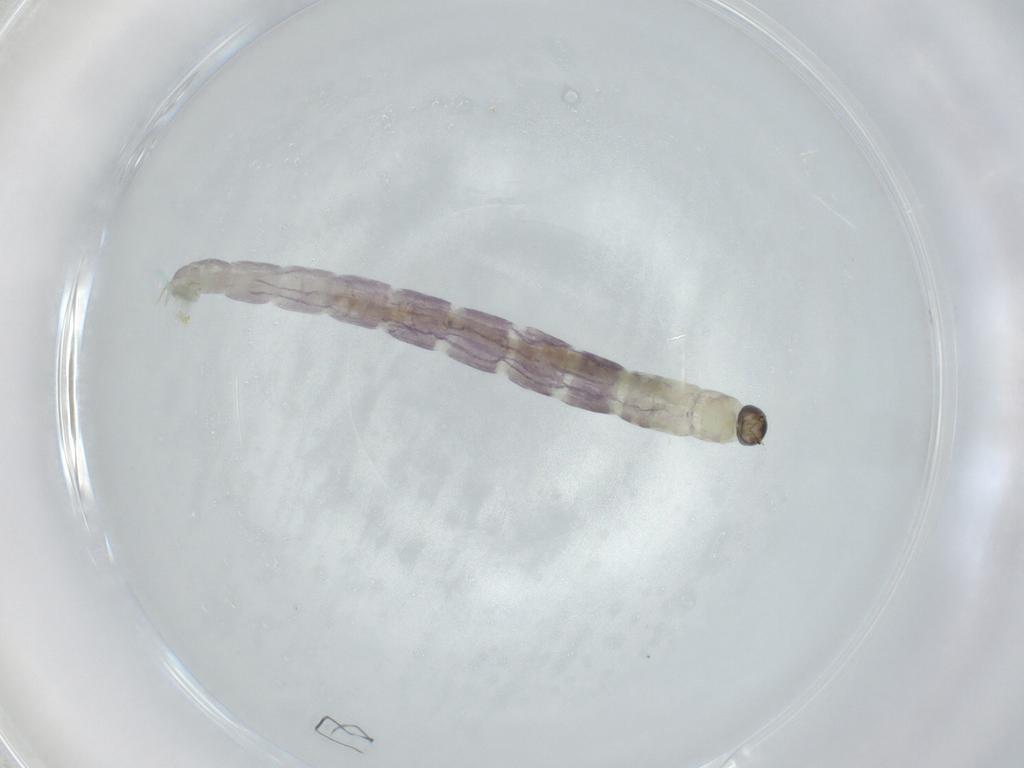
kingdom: Animalia
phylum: Arthropoda
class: Insecta
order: Diptera
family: Chironomidae
